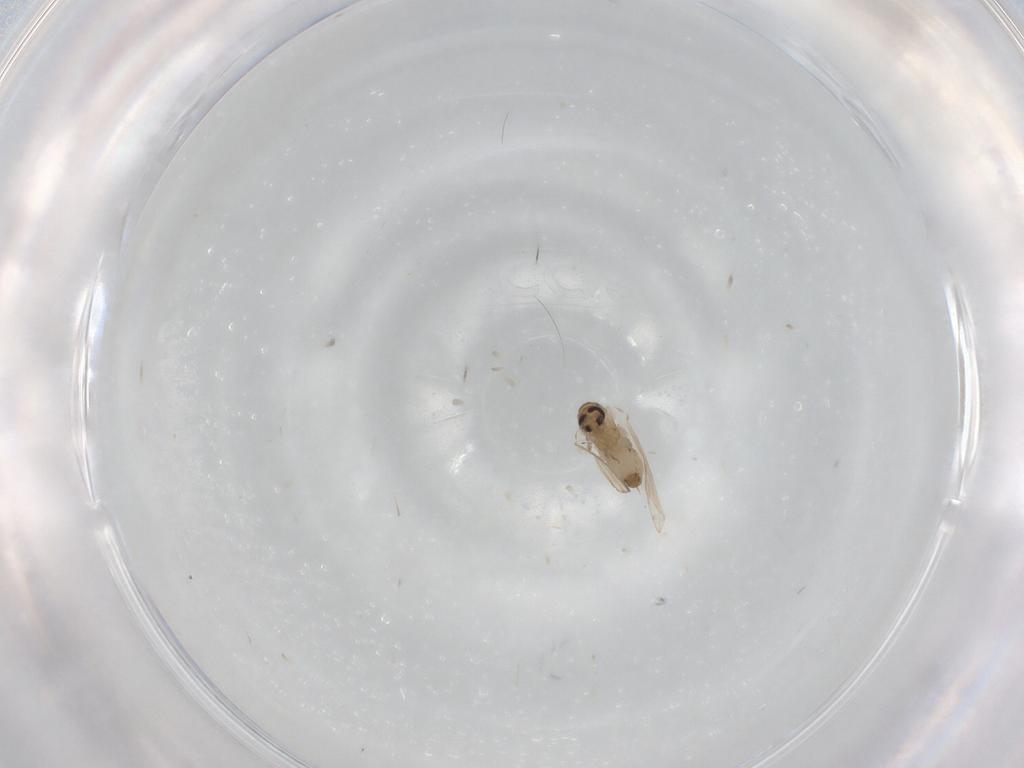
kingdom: Animalia
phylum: Arthropoda
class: Insecta
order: Diptera
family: Psychodidae
